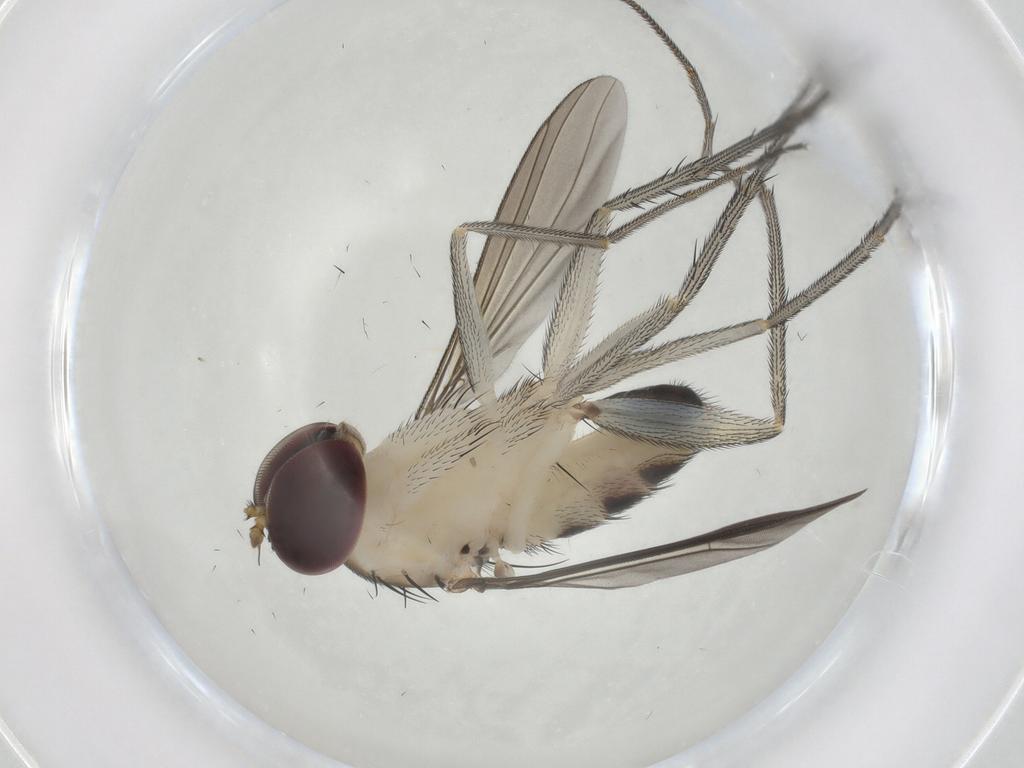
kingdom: Animalia
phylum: Arthropoda
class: Insecta
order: Diptera
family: Dolichopodidae
